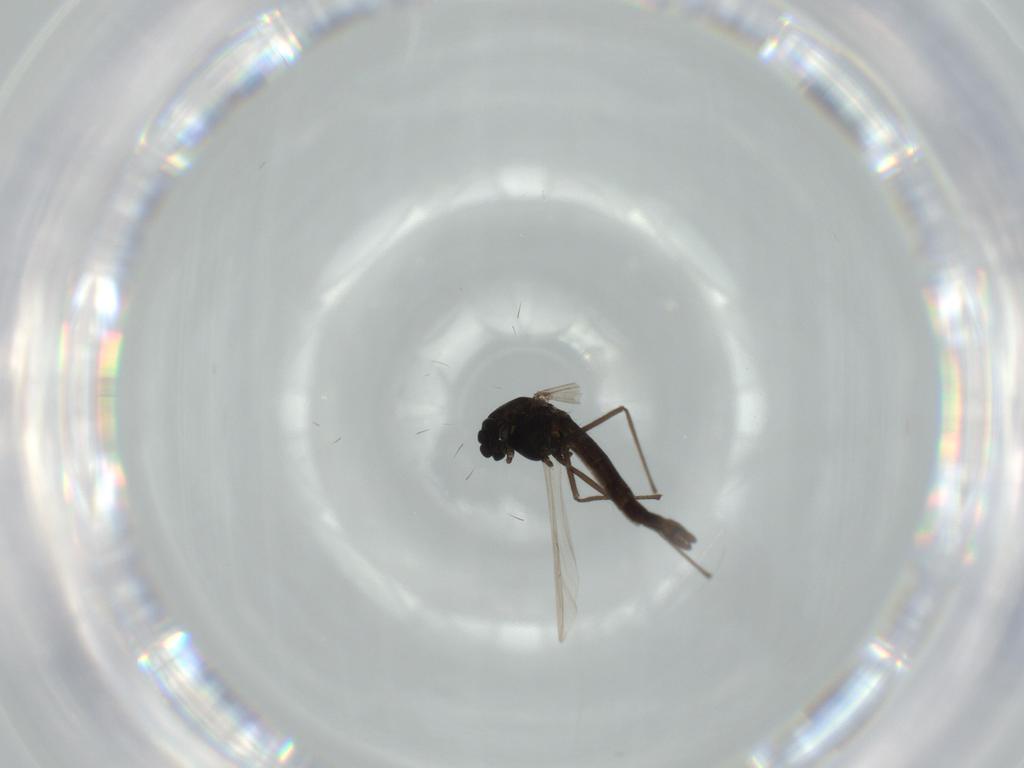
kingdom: Animalia
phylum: Arthropoda
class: Insecta
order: Diptera
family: Chironomidae
